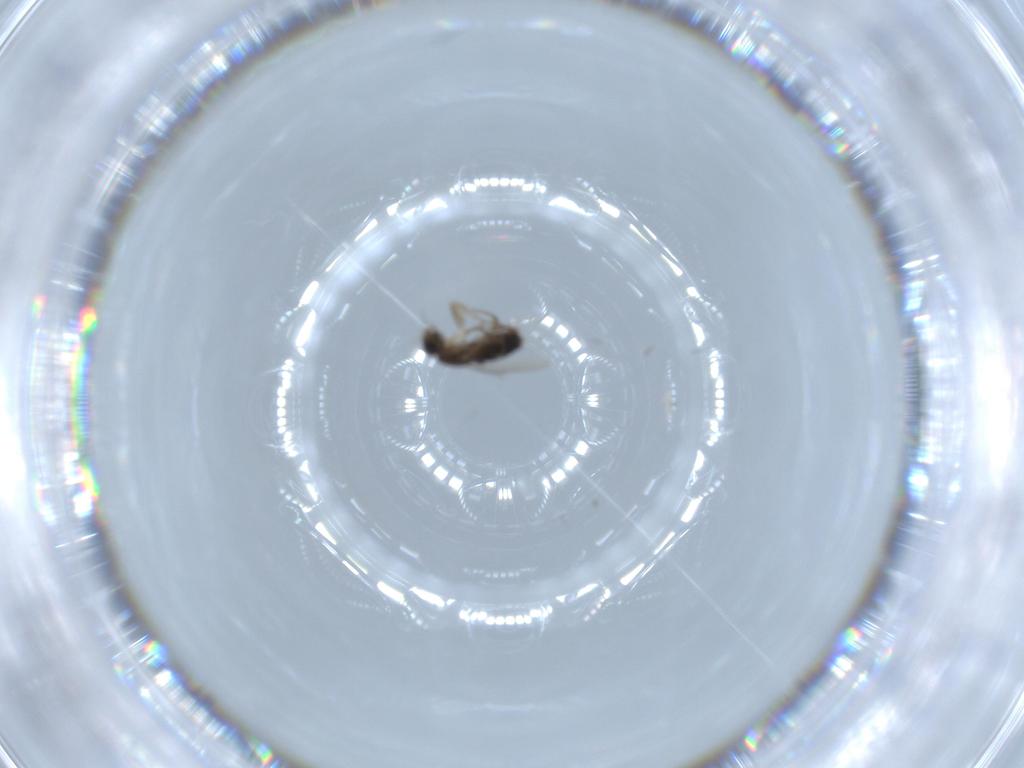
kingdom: Animalia
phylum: Arthropoda
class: Insecta
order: Diptera
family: Phoridae
